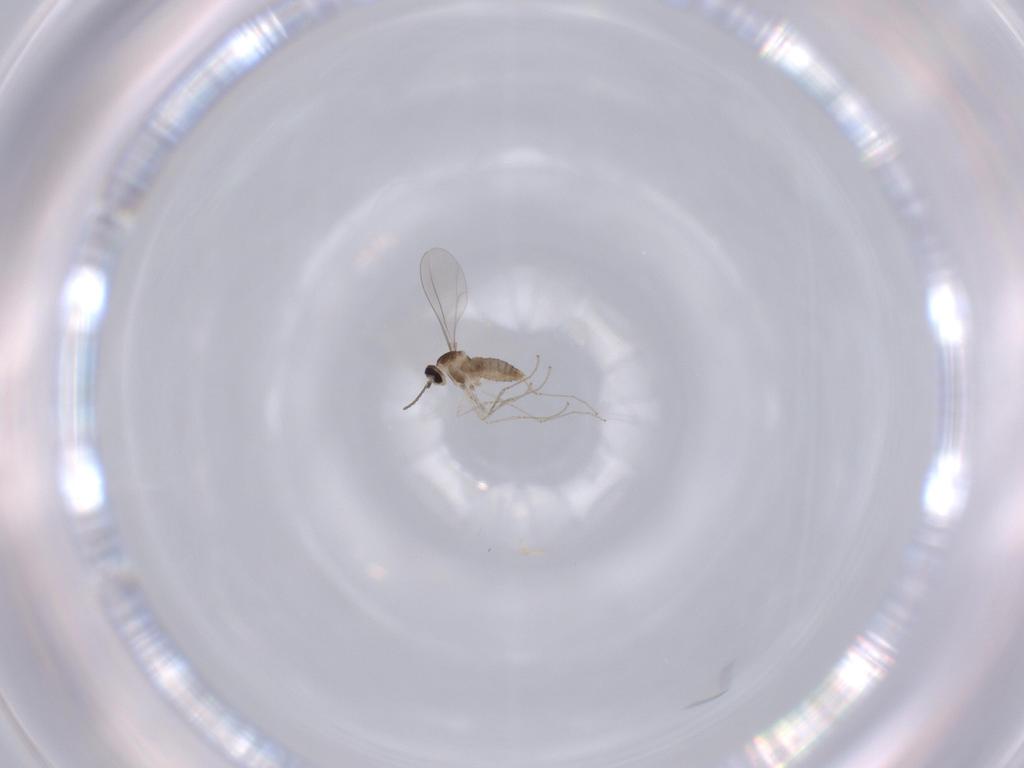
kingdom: Animalia
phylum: Arthropoda
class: Insecta
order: Diptera
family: Cecidomyiidae
